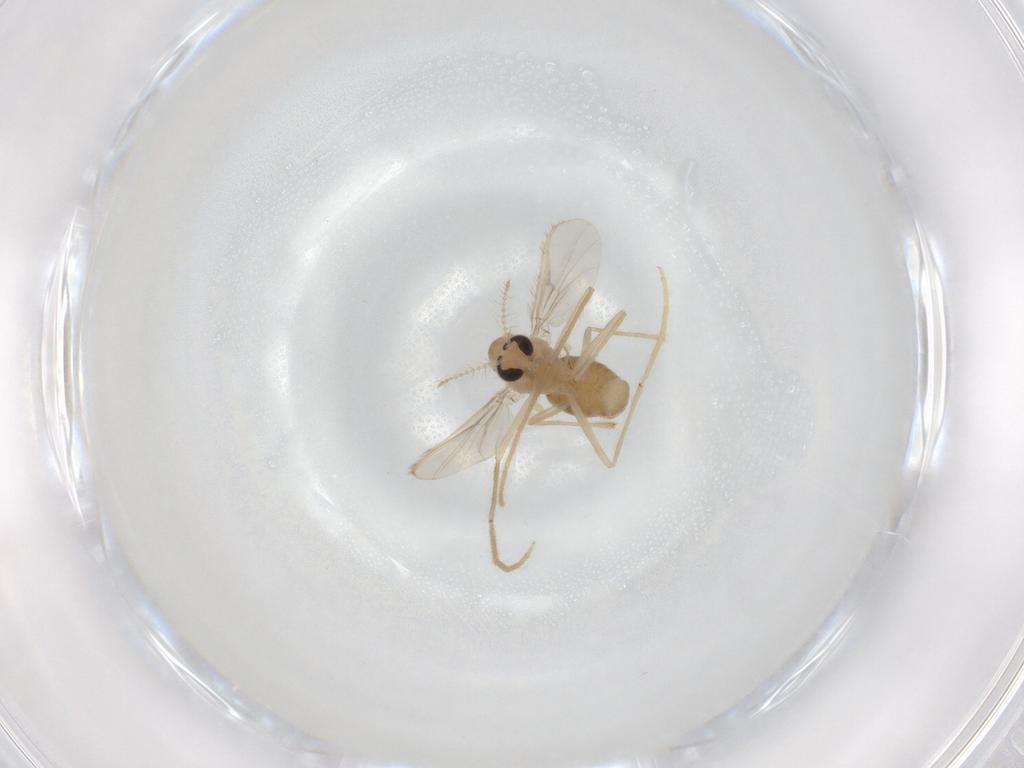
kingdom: Animalia
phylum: Arthropoda
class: Insecta
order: Diptera
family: Chironomidae
